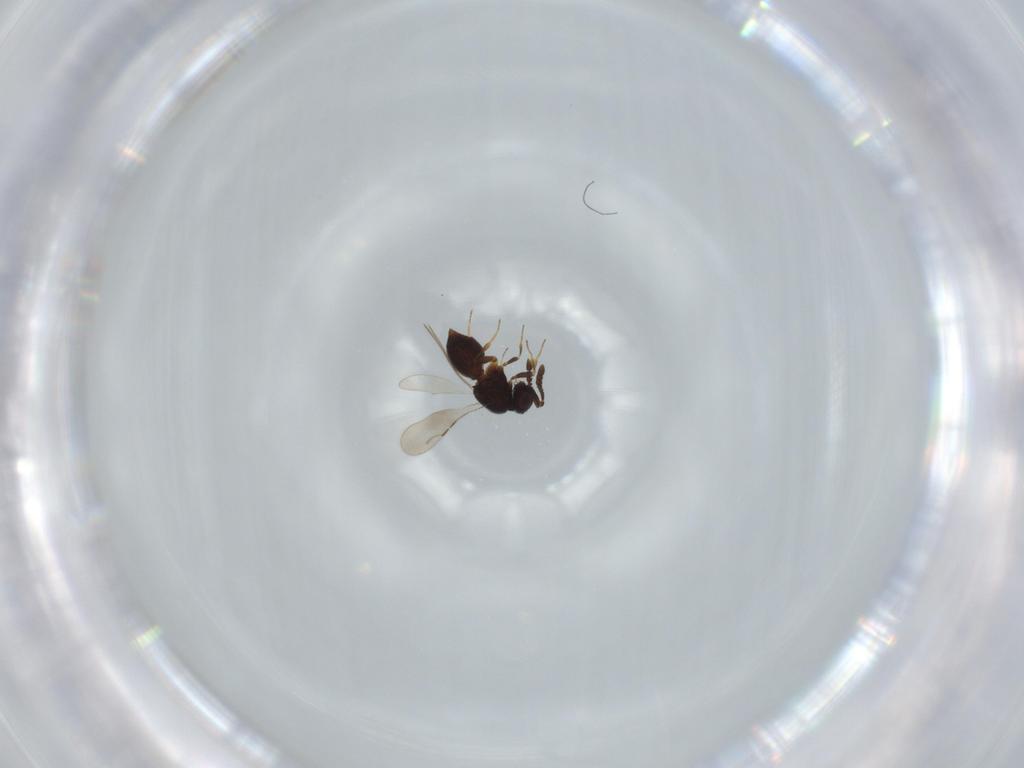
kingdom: Animalia
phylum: Arthropoda
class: Insecta
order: Hymenoptera
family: Ceraphronidae
